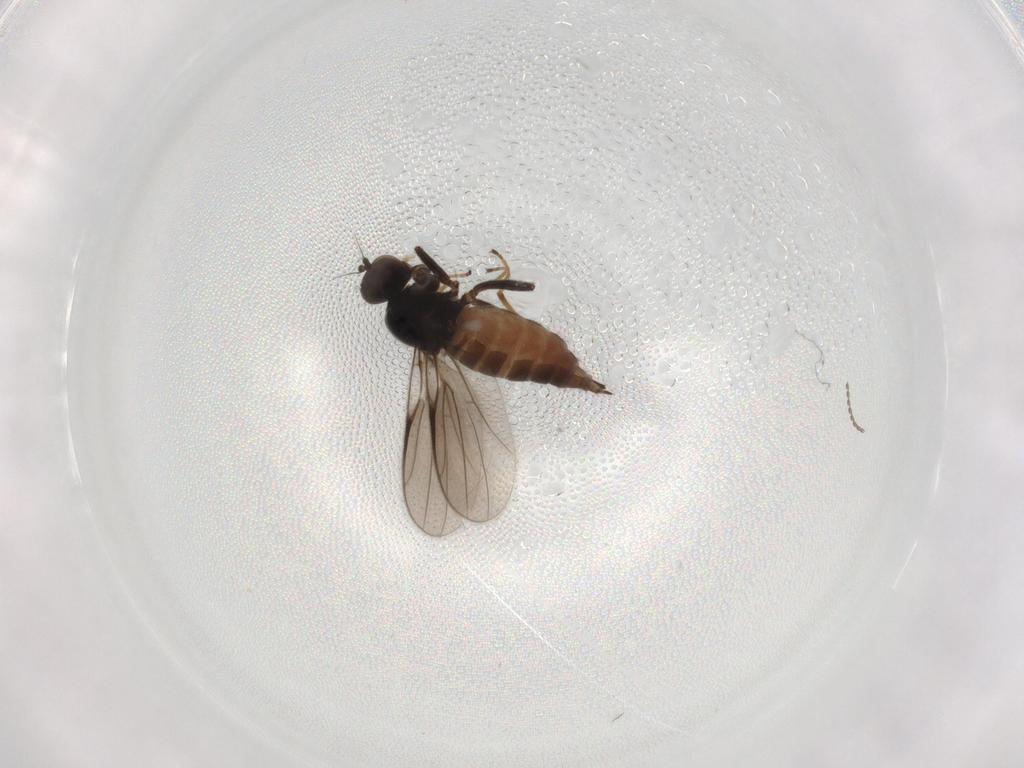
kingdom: Animalia
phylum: Arthropoda
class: Insecta
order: Diptera
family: Hybotidae
